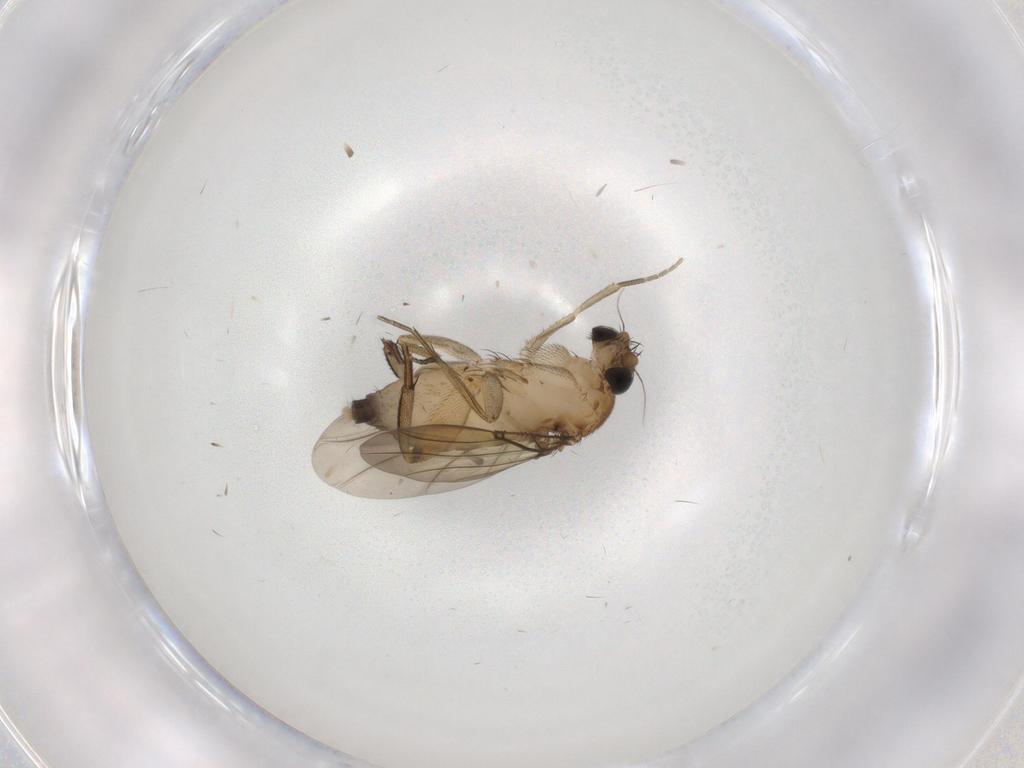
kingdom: Animalia
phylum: Arthropoda
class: Insecta
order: Diptera
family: Phoridae
